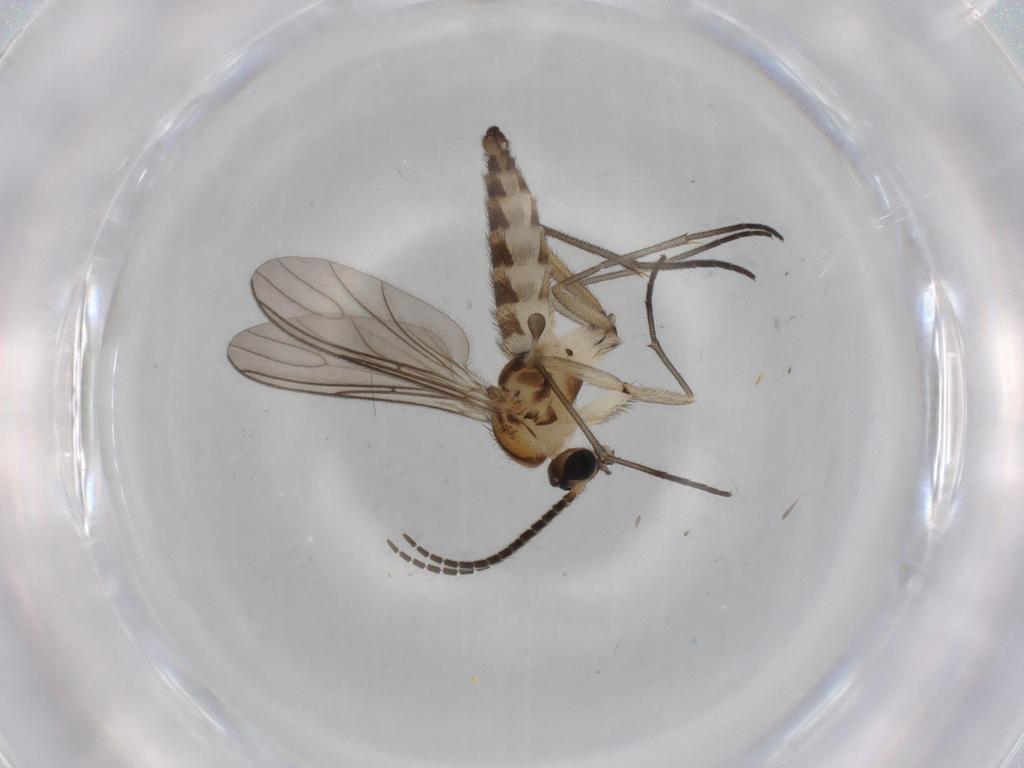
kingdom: Animalia
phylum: Arthropoda
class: Insecta
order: Diptera
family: Sciaridae
